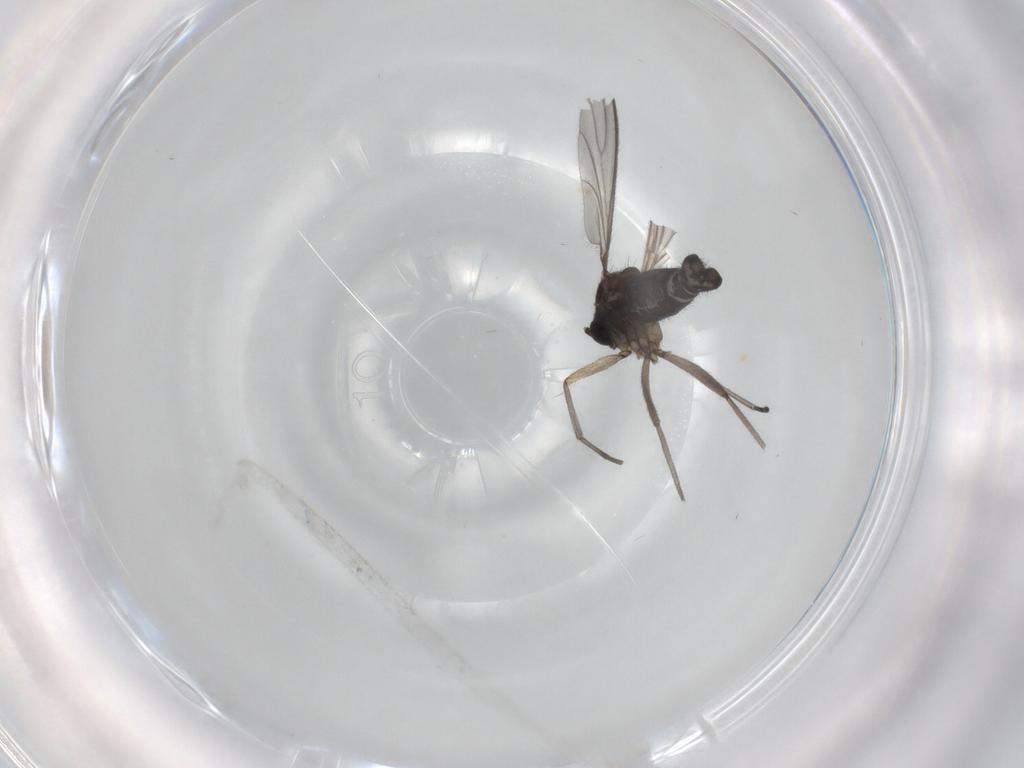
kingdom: Animalia
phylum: Arthropoda
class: Insecta
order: Diptera
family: Sciaridae
